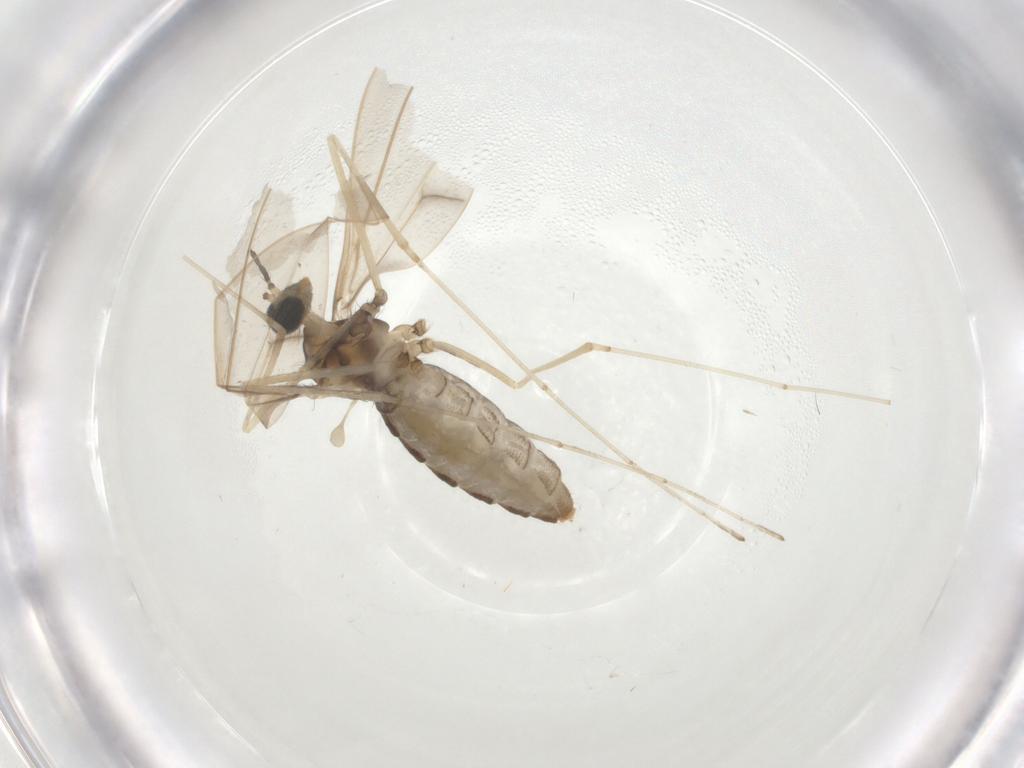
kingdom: Animalia
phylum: Arthropoda
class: Insecta
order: Diptera
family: Cecidomyiidae
